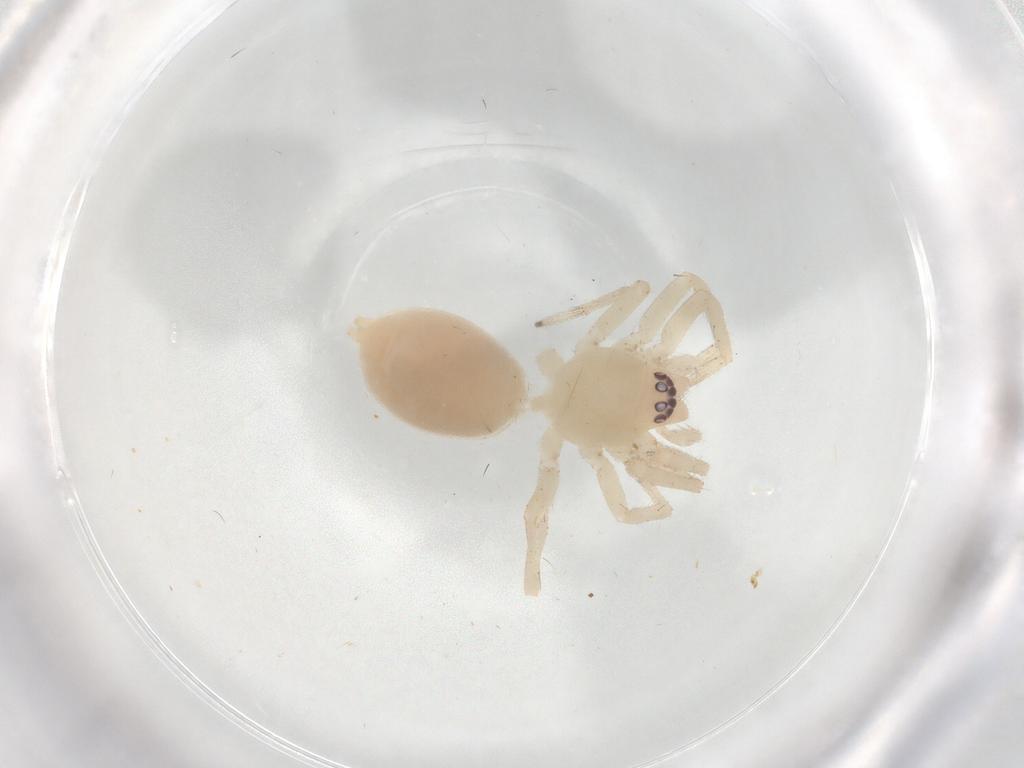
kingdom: Animalia
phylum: Arthropoda
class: Arachnida
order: Araneae
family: Pholcidae
